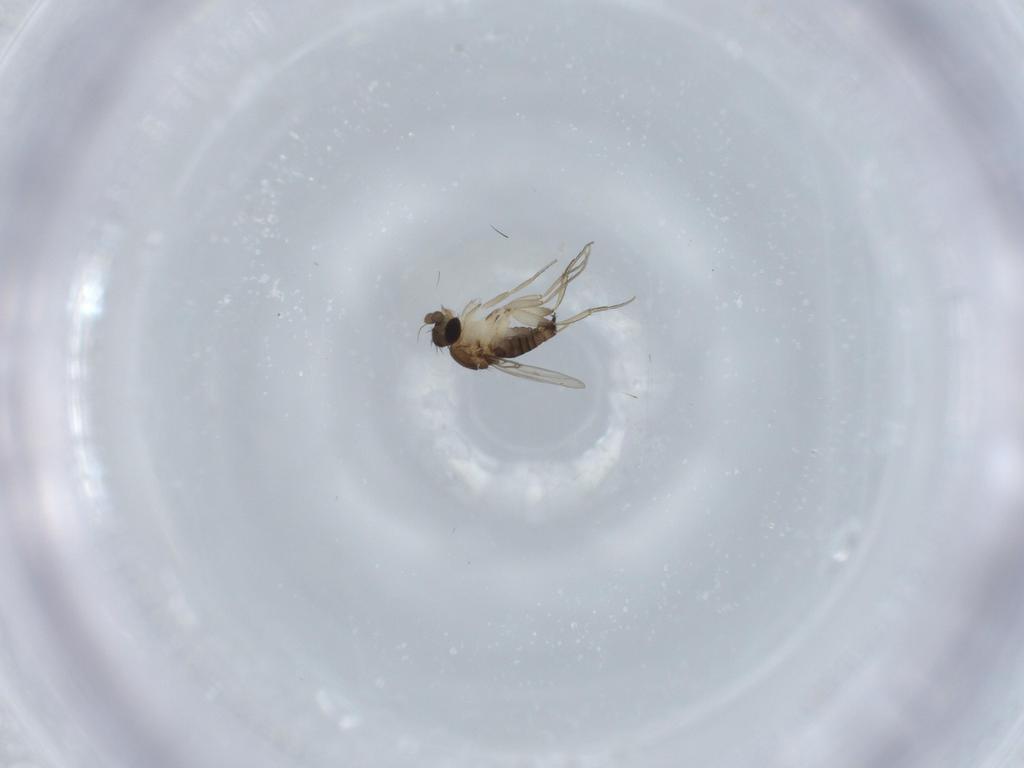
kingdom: Animalia
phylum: Arthropoda
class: Insecta
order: Diptera
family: Phoridae
